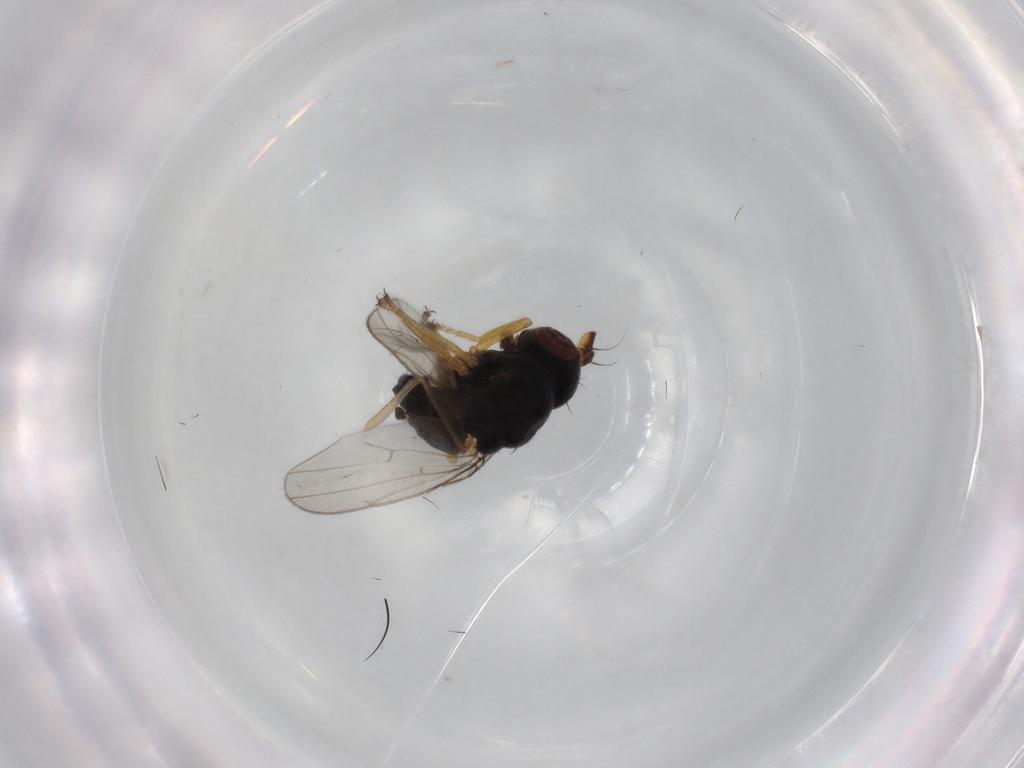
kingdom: Animalia
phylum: Arthropoda
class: Insecta
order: Diptera
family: Ephydridae
